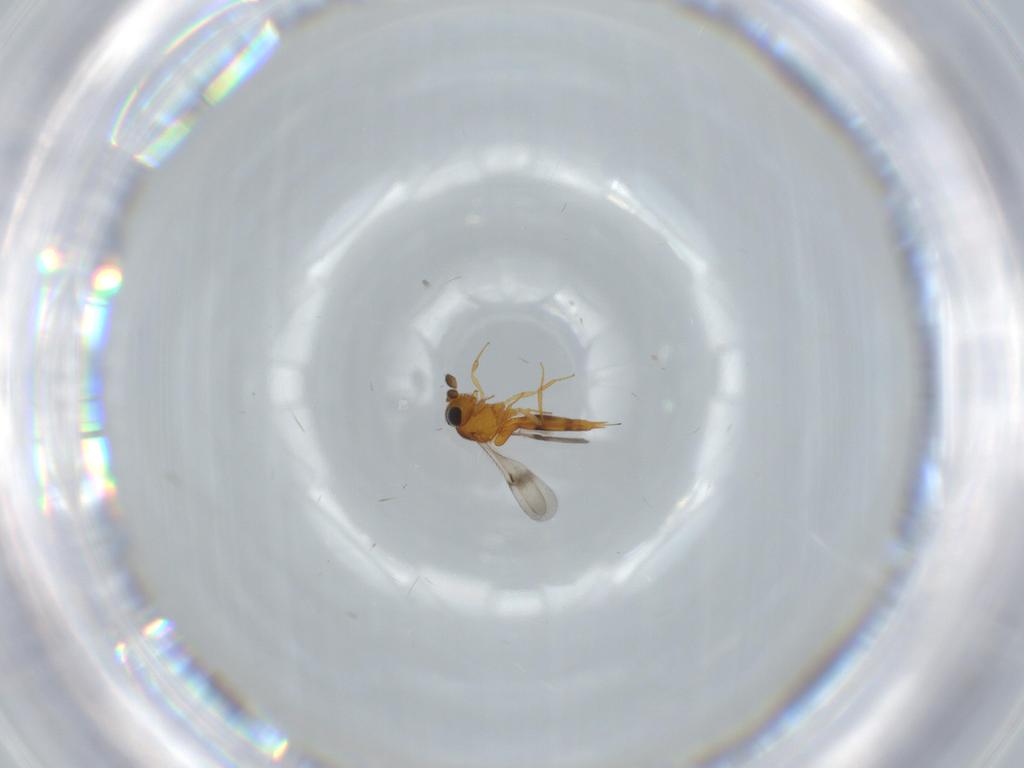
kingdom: Animalia
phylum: Arthropoda
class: Insecta
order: Hymenoptera
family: Scelionidae
